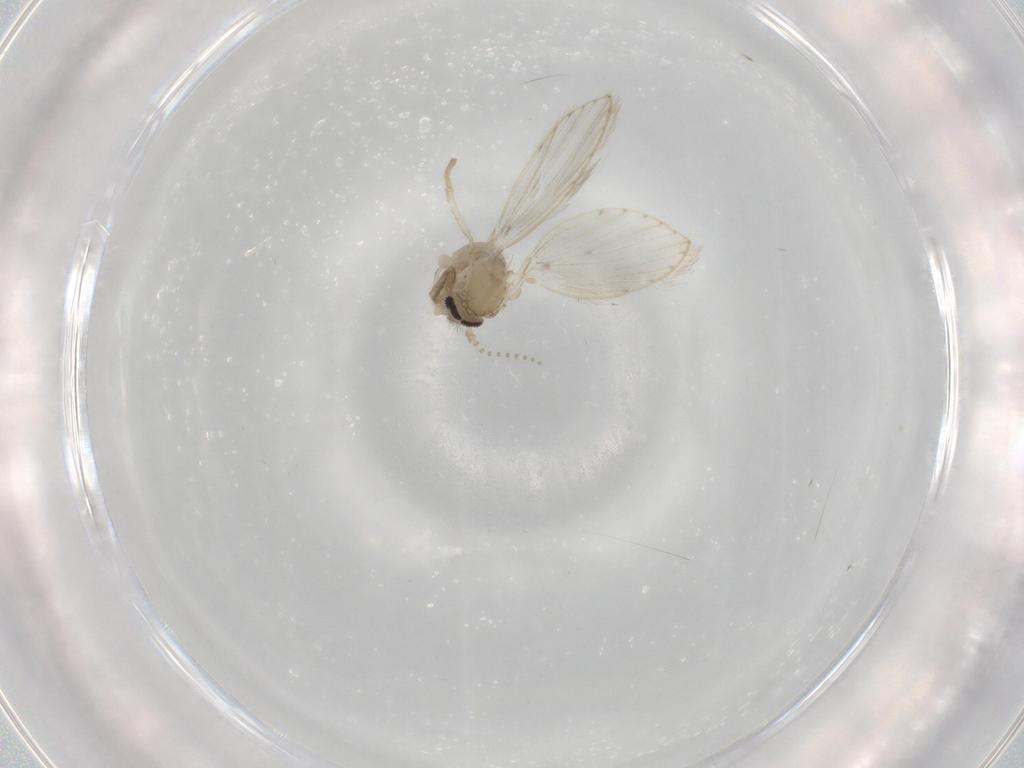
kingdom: Animalia
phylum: Arthropoda
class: Insecta
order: Diptera
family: Psychodidae
